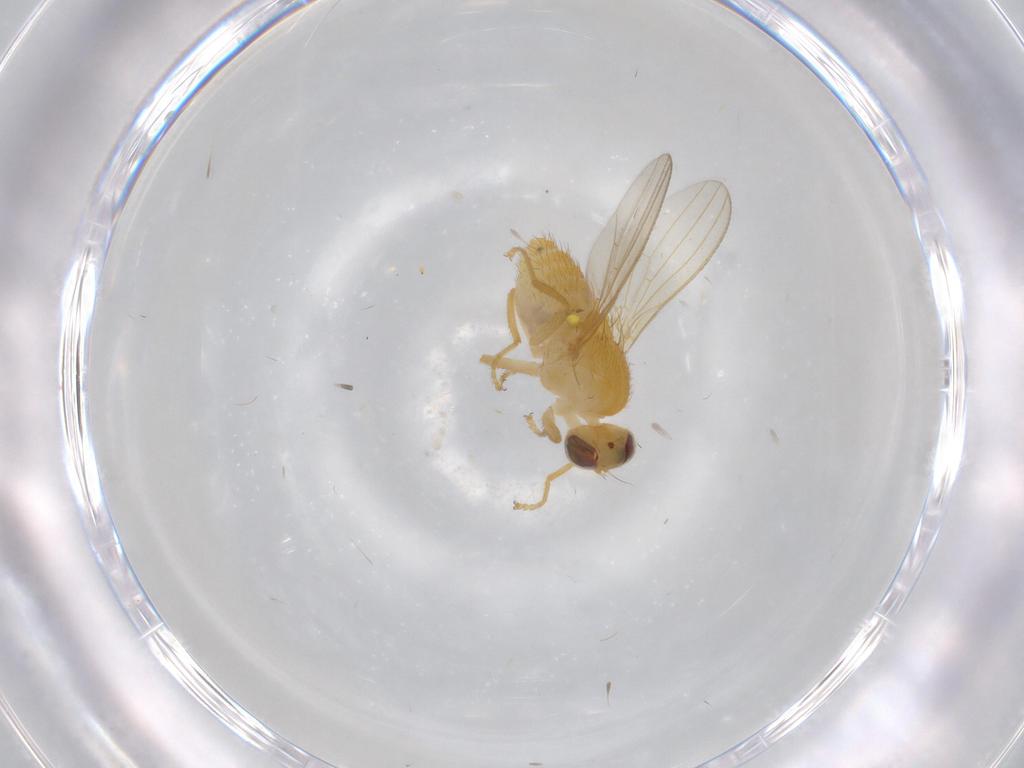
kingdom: Animalia
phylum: Arthropoda
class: Insecta
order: Diptera
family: Chyromyidae
